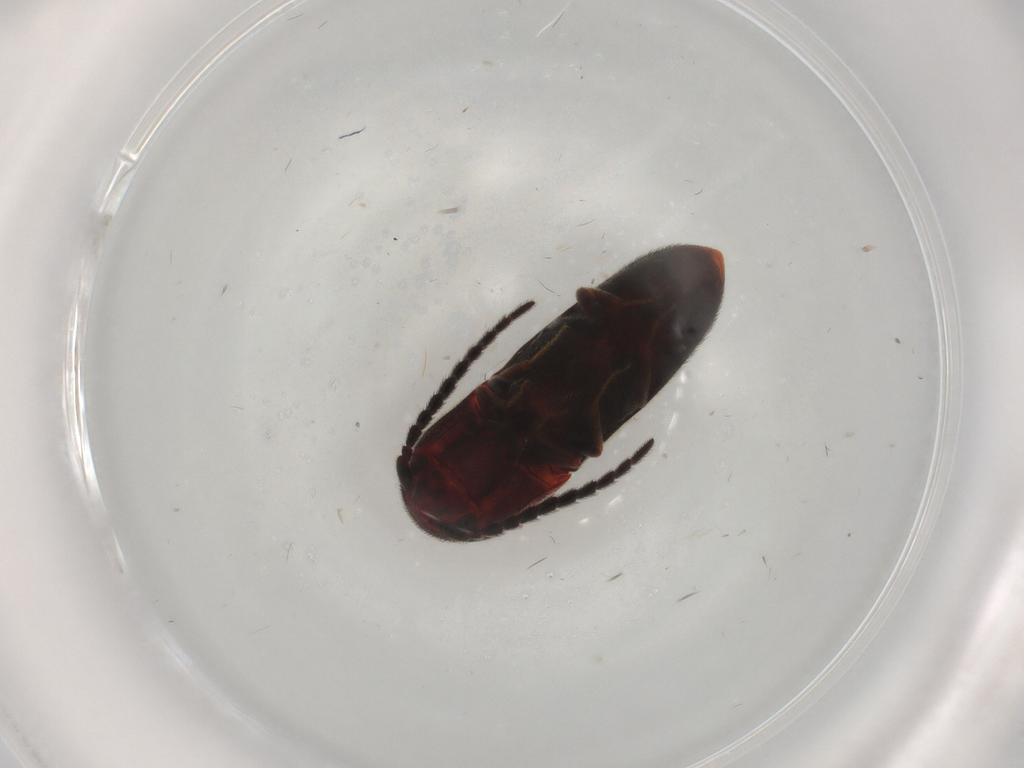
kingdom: Animalia
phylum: Arthropoda
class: Insecta
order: Coleoptera
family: Eucnemidae
